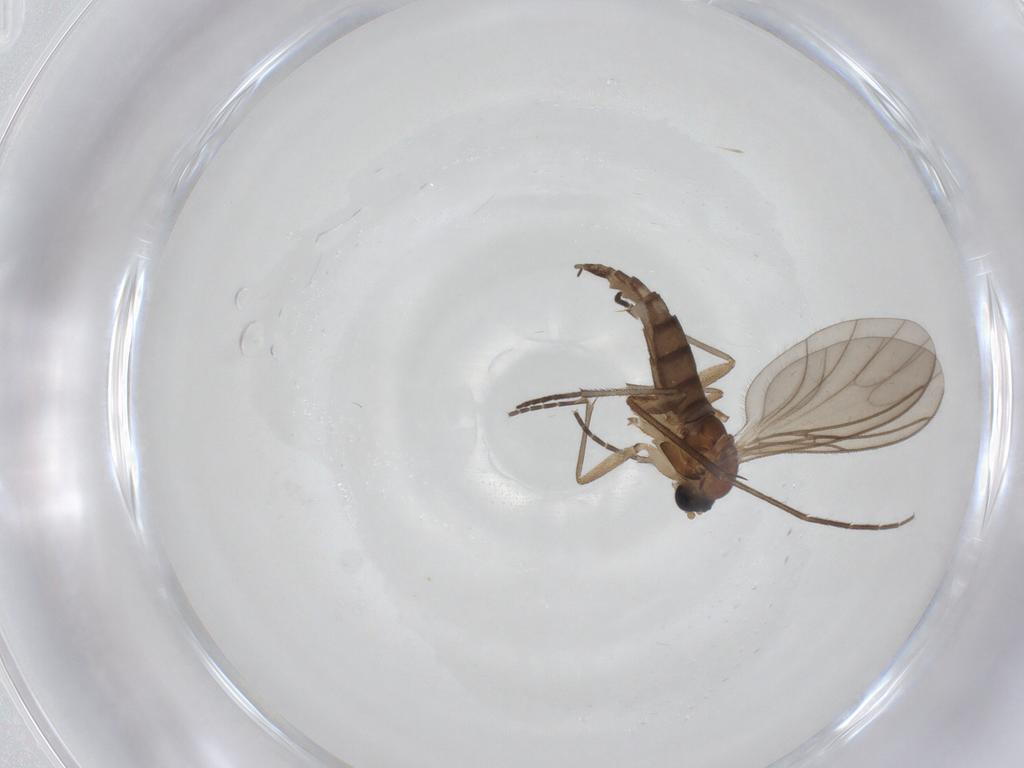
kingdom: Animalia
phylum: Arthropoda
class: Insecta
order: Diptera
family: Sciaridae
